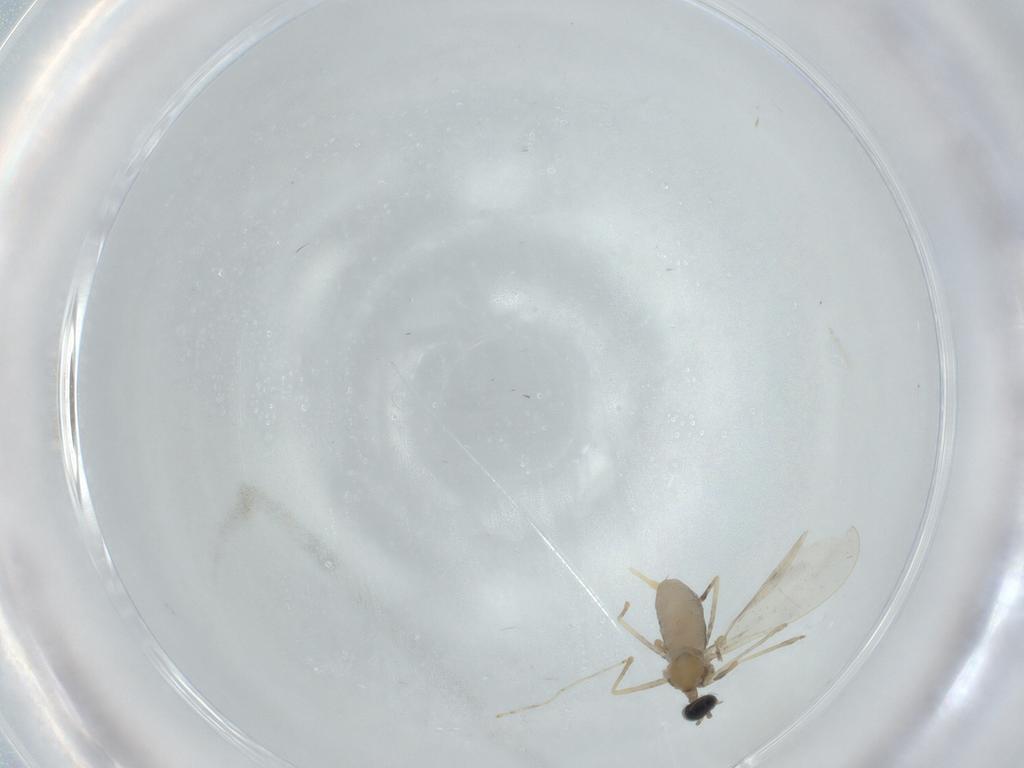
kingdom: Animalia
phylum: Arthropoda
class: Insecta
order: Diptera
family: Cecidomyiidae
